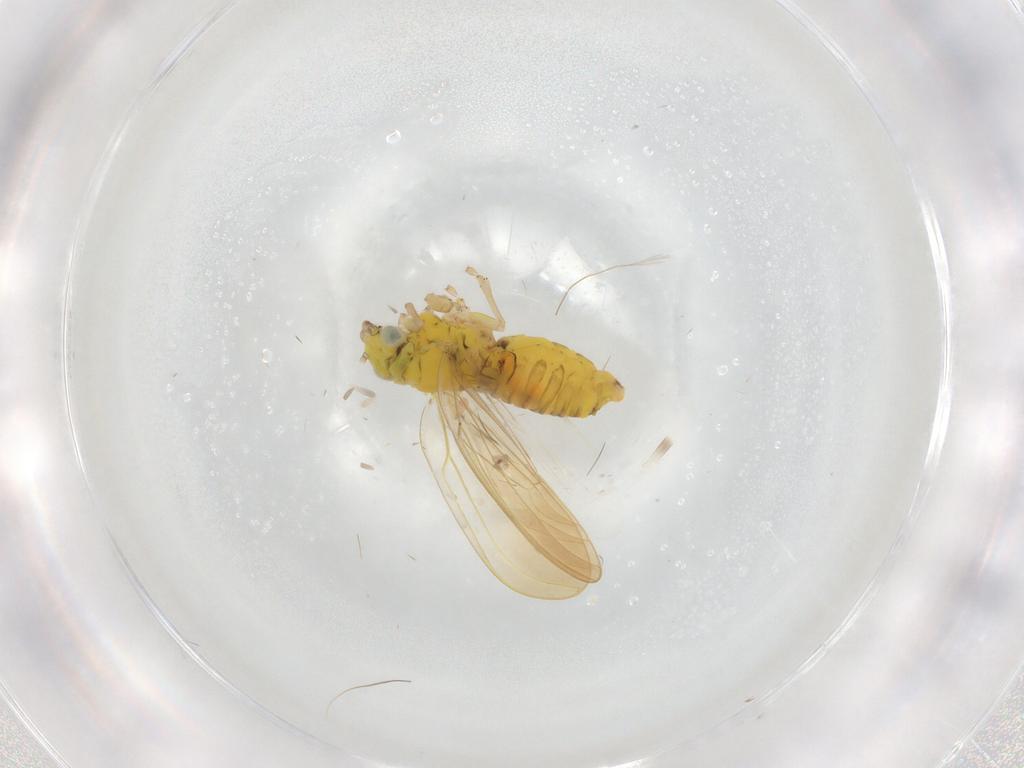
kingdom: Animalia
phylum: Arthropoda
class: Insecta
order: Hemiptera
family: Aphalaridae
